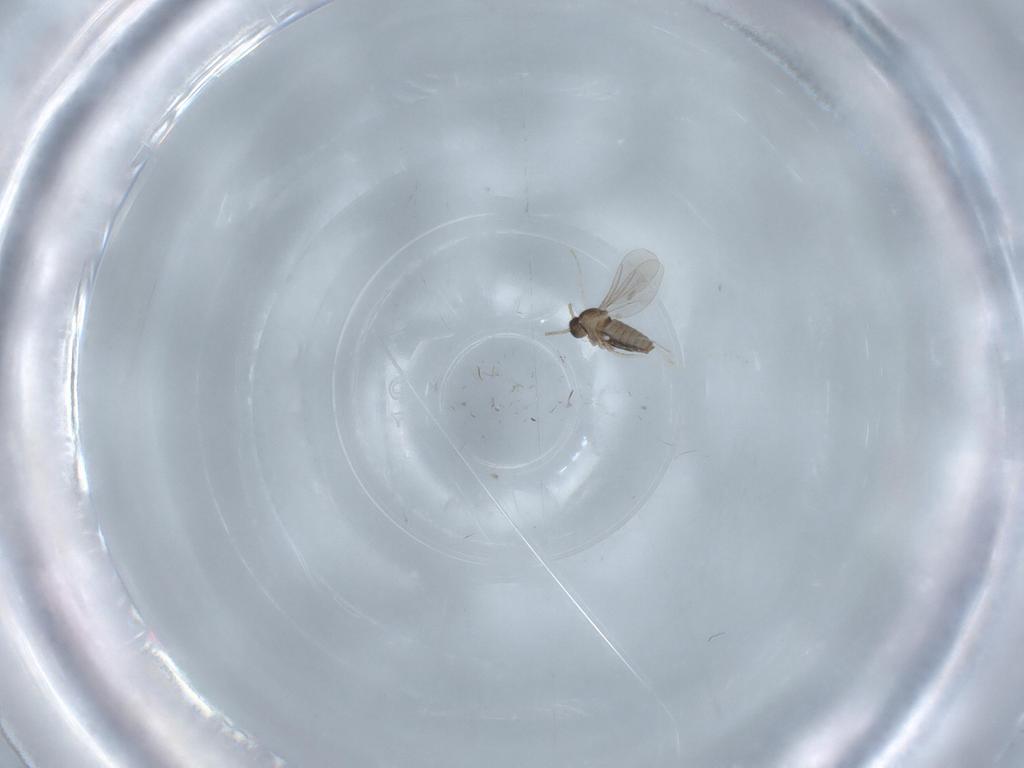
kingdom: Animalia
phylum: Arthropoda
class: Insecta
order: Diptera
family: Cecidomyiidae
